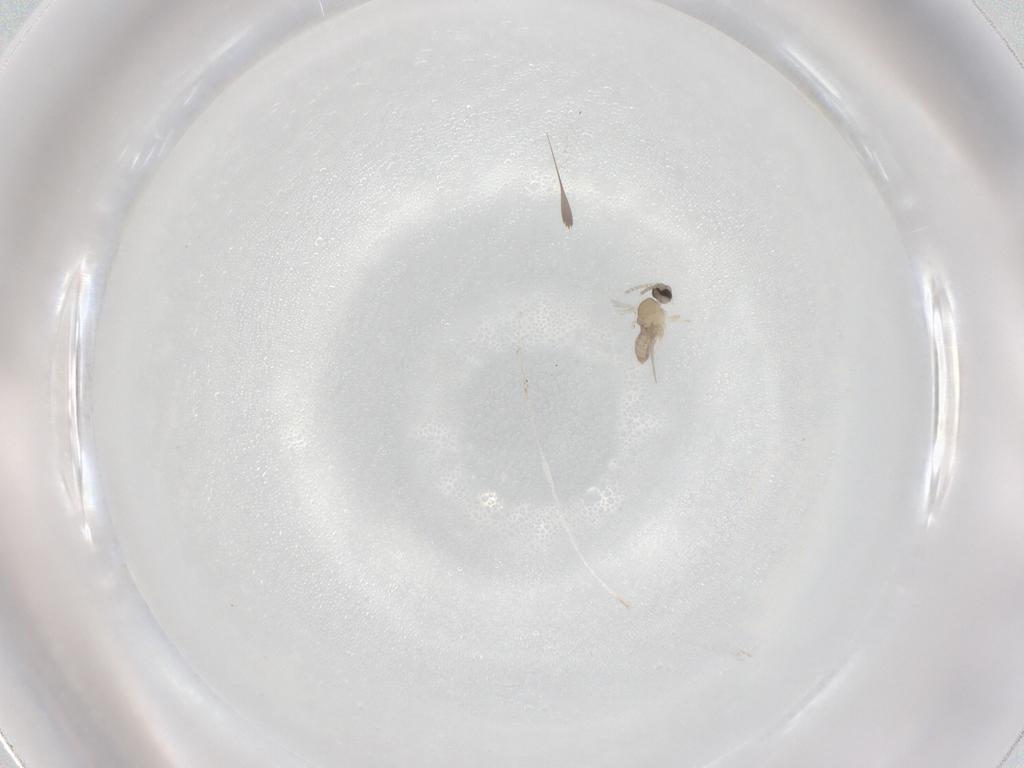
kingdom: Animalia
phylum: Arthropoda
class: Insecta
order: Diptera
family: Cecidomyiidae
